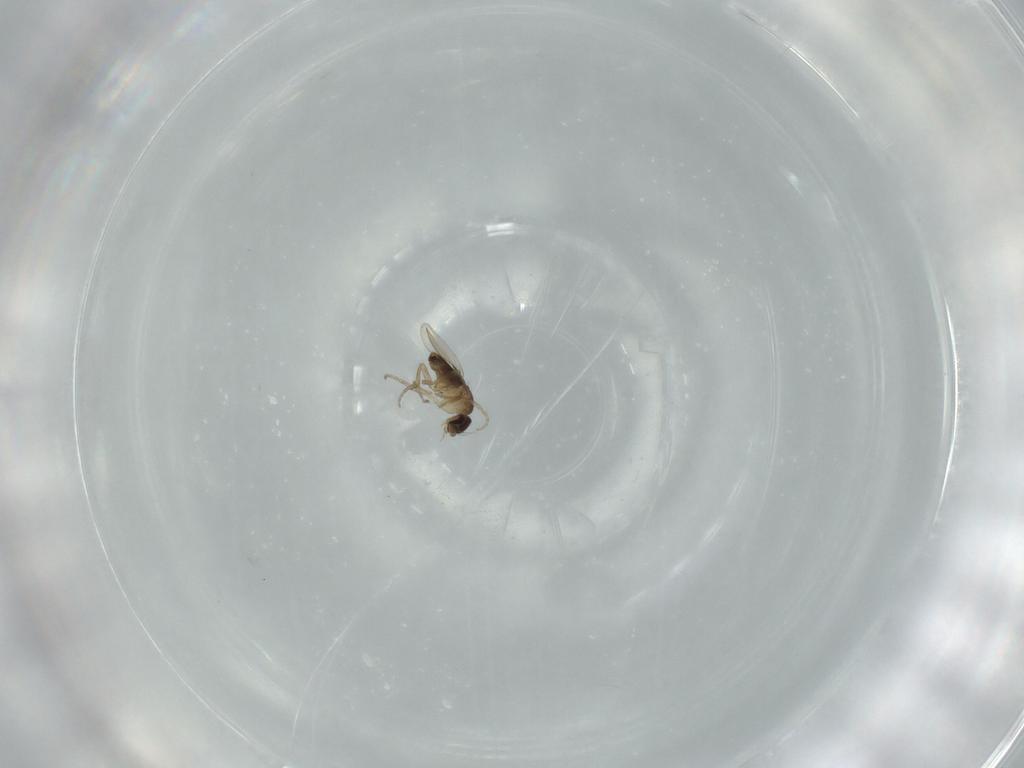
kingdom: Animalia
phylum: Arthropoda
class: Insecta
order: Diptera
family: Phoridae
